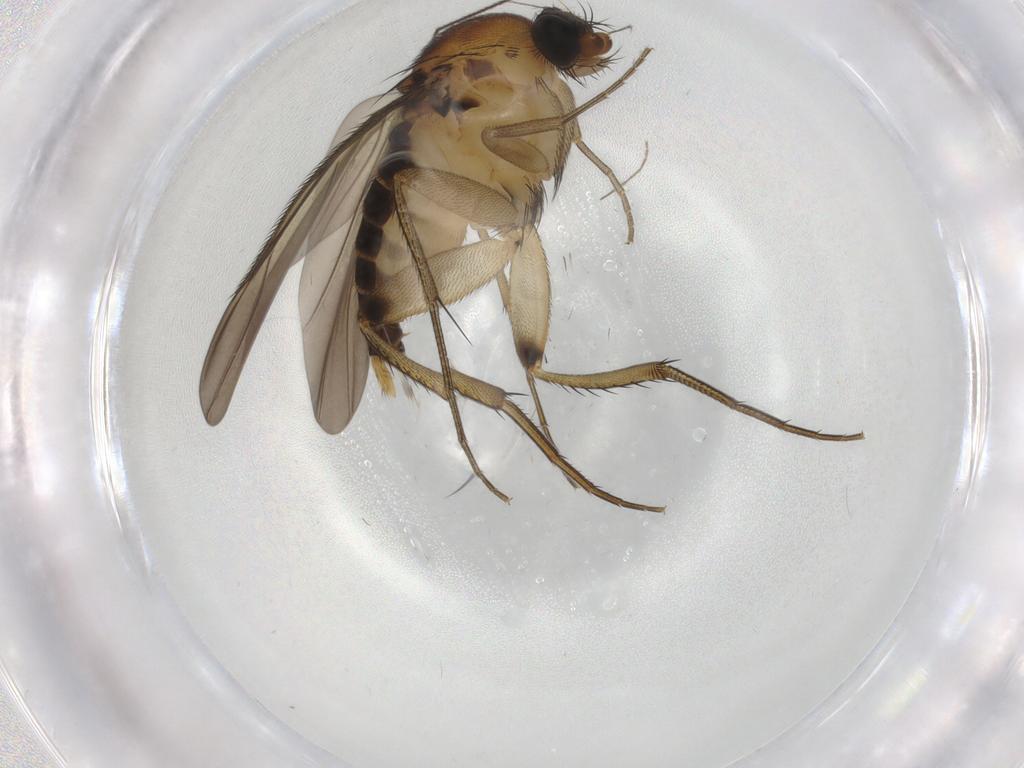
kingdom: Animalia
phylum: Arthropoda
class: Insecta
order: Diptera
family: Phoridae
